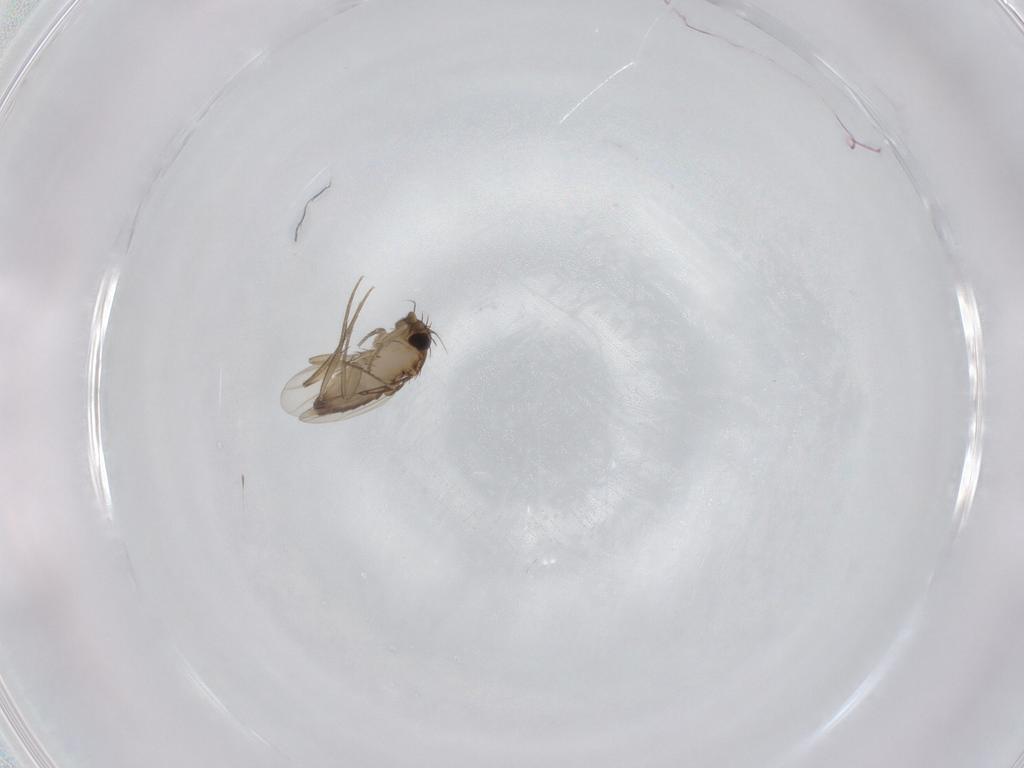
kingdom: Animalia
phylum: Arthropoda
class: Insecta
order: Diptera
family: Phoridae
